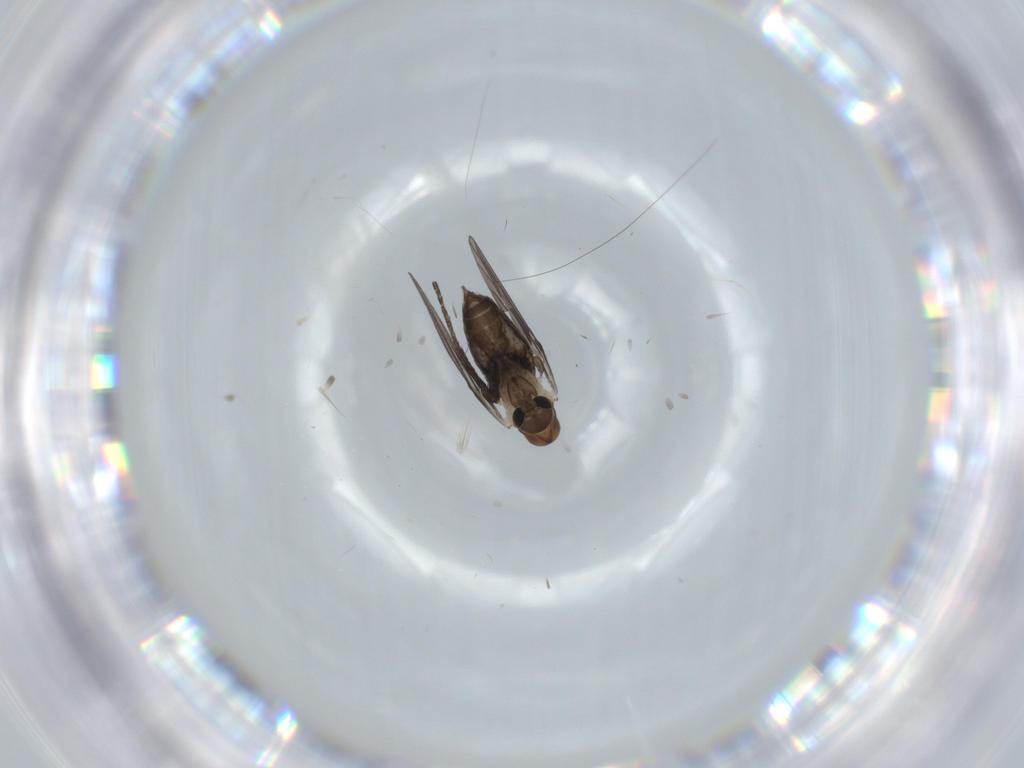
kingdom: Animalia
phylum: Arthropoda
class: Insecta
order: Diptera
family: Psychodidae
